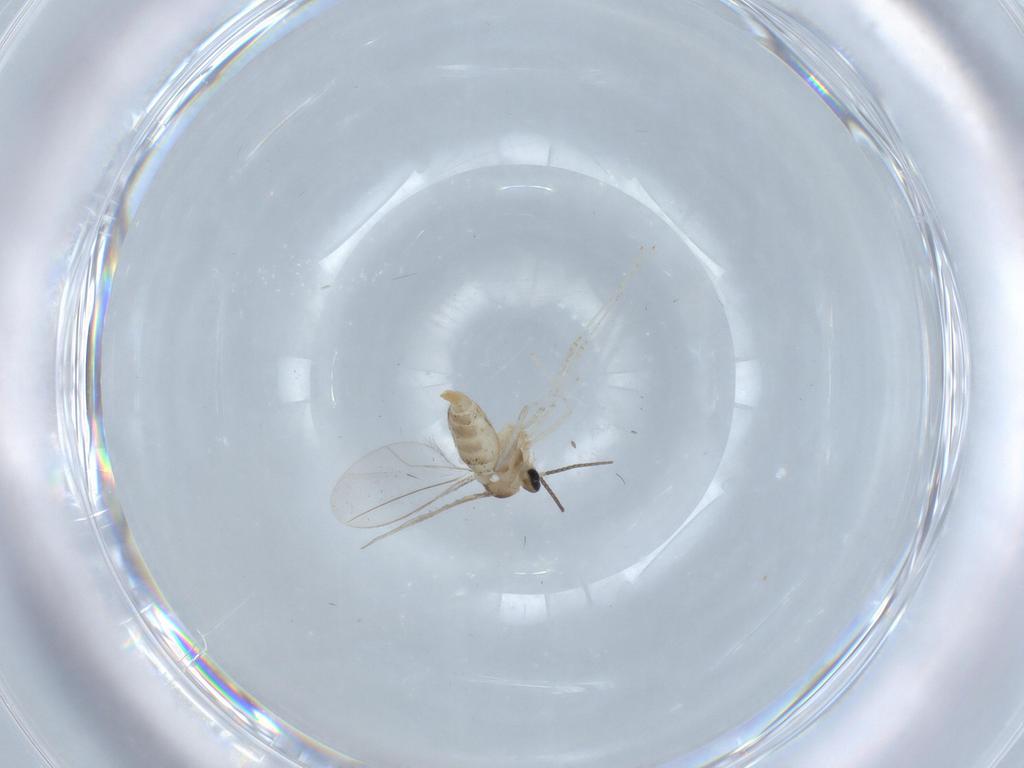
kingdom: Animalia
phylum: Arthropoda
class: Insecta
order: Diptera
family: Cecidomyiidae
